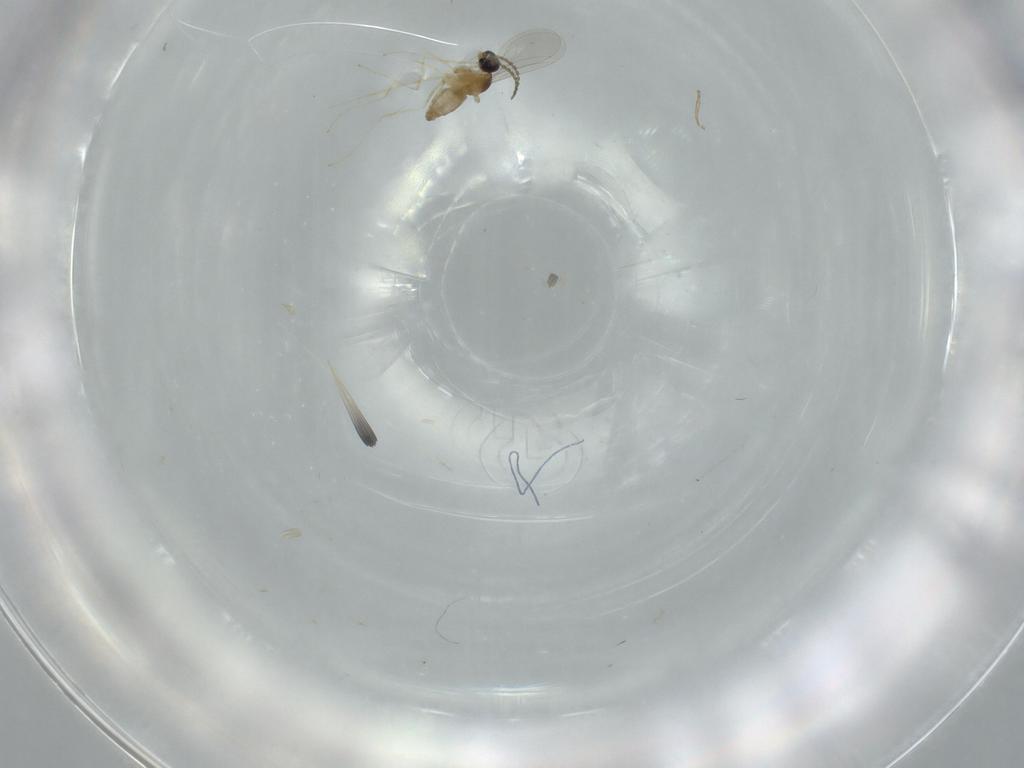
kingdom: Animalia
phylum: Arthropoda
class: Insecta
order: Diptera
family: Cecidomyiidae
